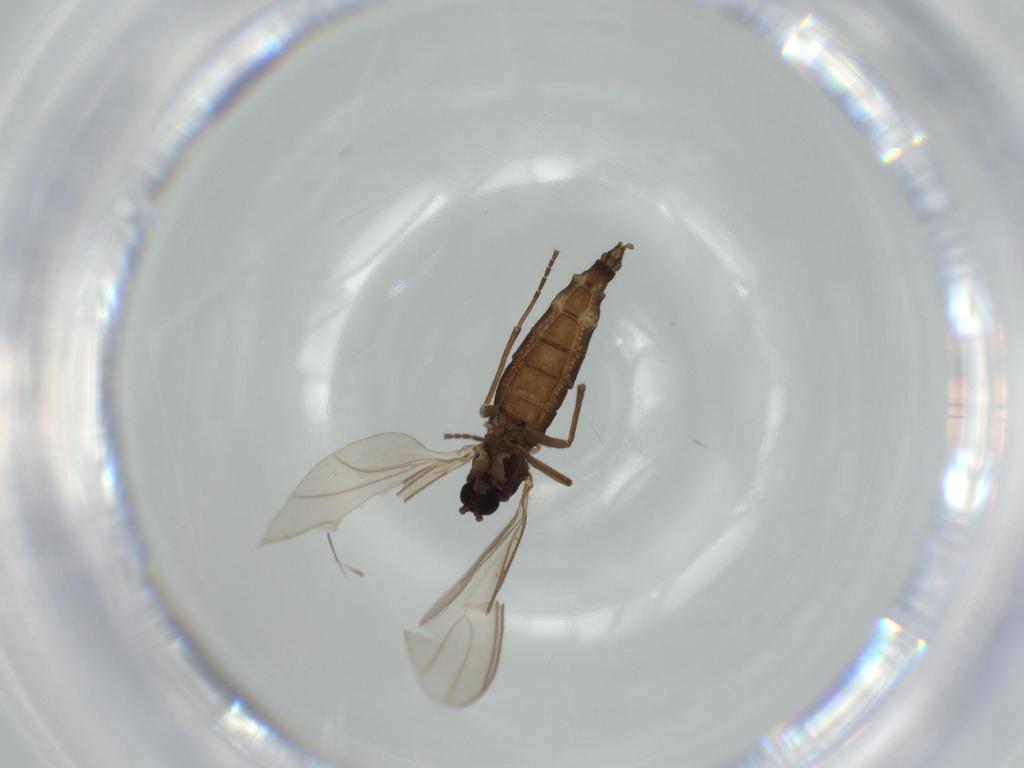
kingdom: Animalia
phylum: Arthropoda
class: Insecta
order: Diptera
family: Sciaridae
